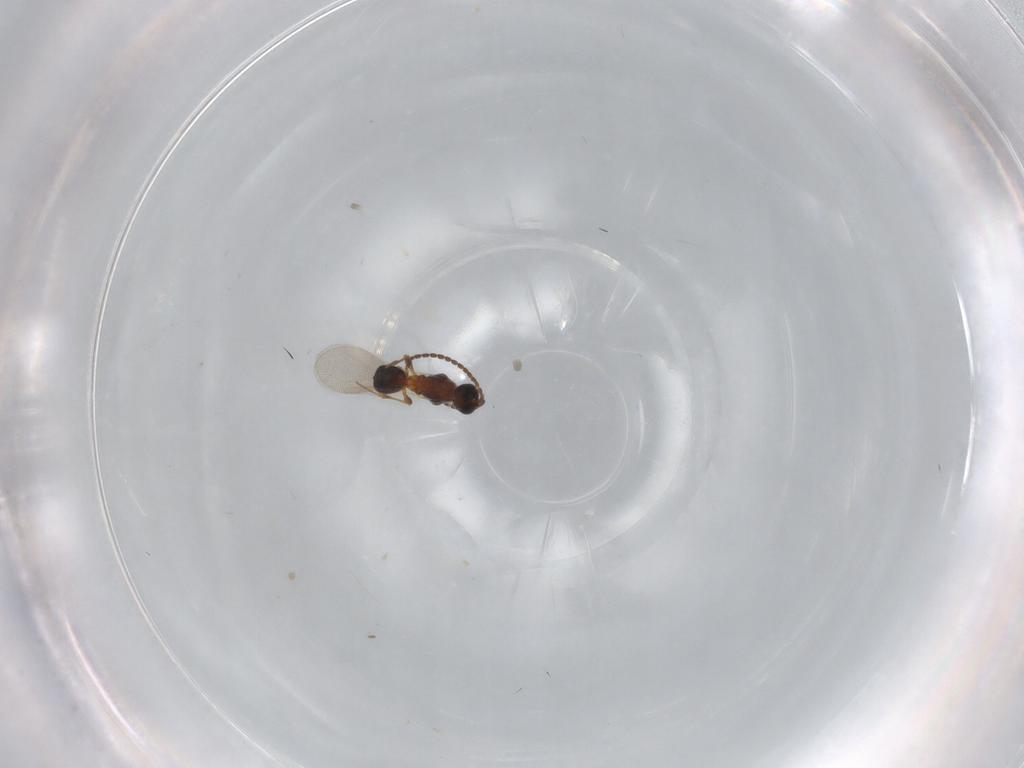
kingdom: Animalia
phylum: Arthropoda
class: Insecta
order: Hymenoptera
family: Diapriidae
